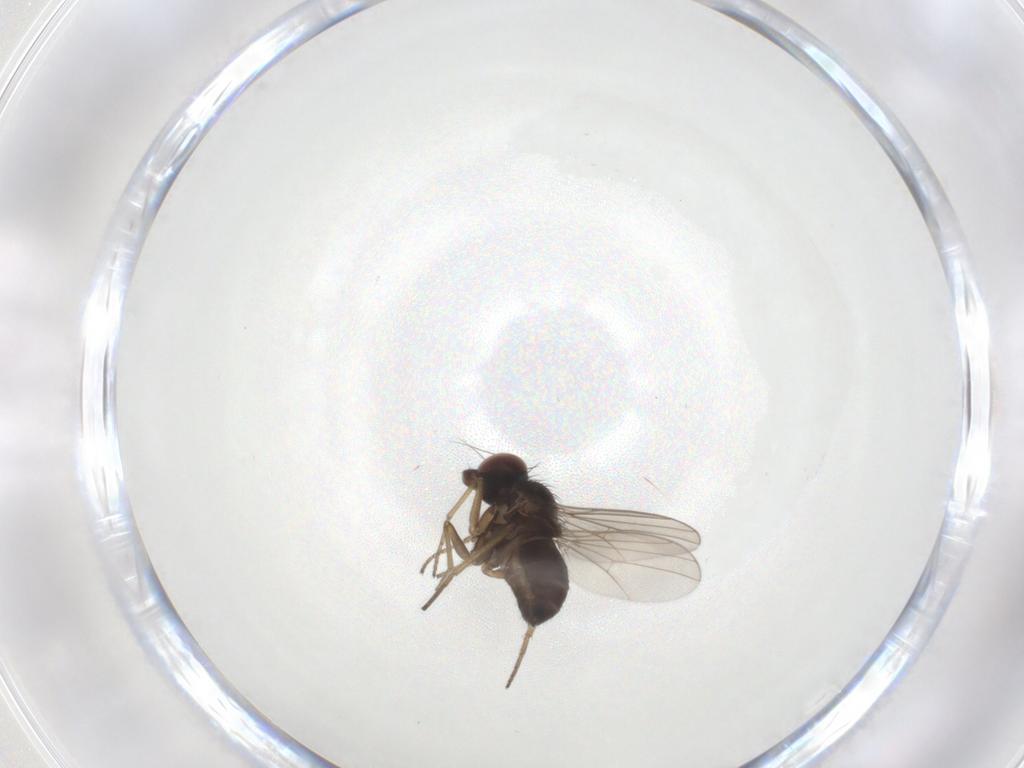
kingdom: Animalia
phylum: Arthropoda
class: Insecta
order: Diptera
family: Dolichopodidae
